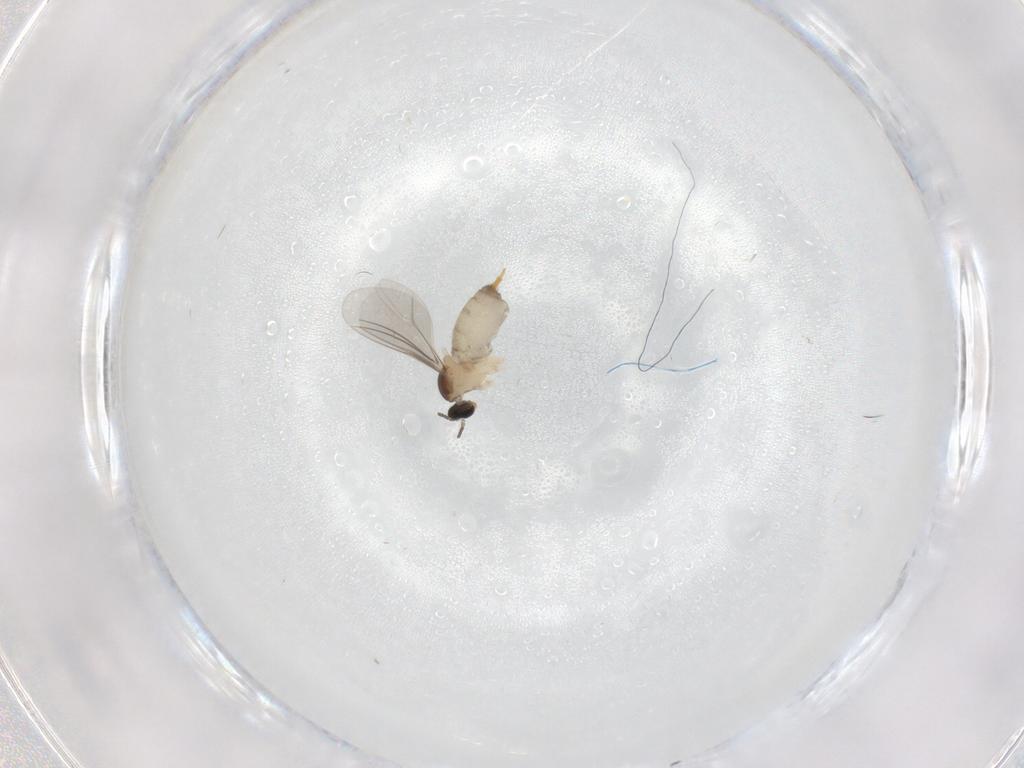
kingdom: Animalia
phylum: Arthropoda
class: Insecta
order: Diptera
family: Cecidomyiidae
